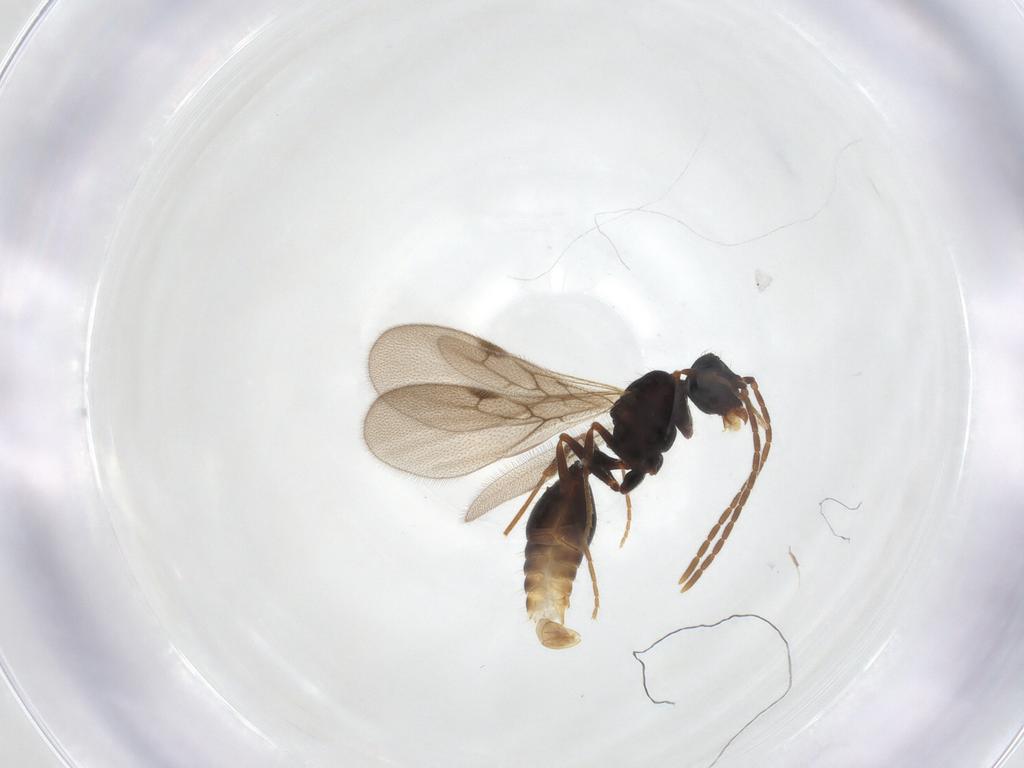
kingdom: Animalia
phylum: Arthropoda
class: Insecta
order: Hymenoptera
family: Formicidae
